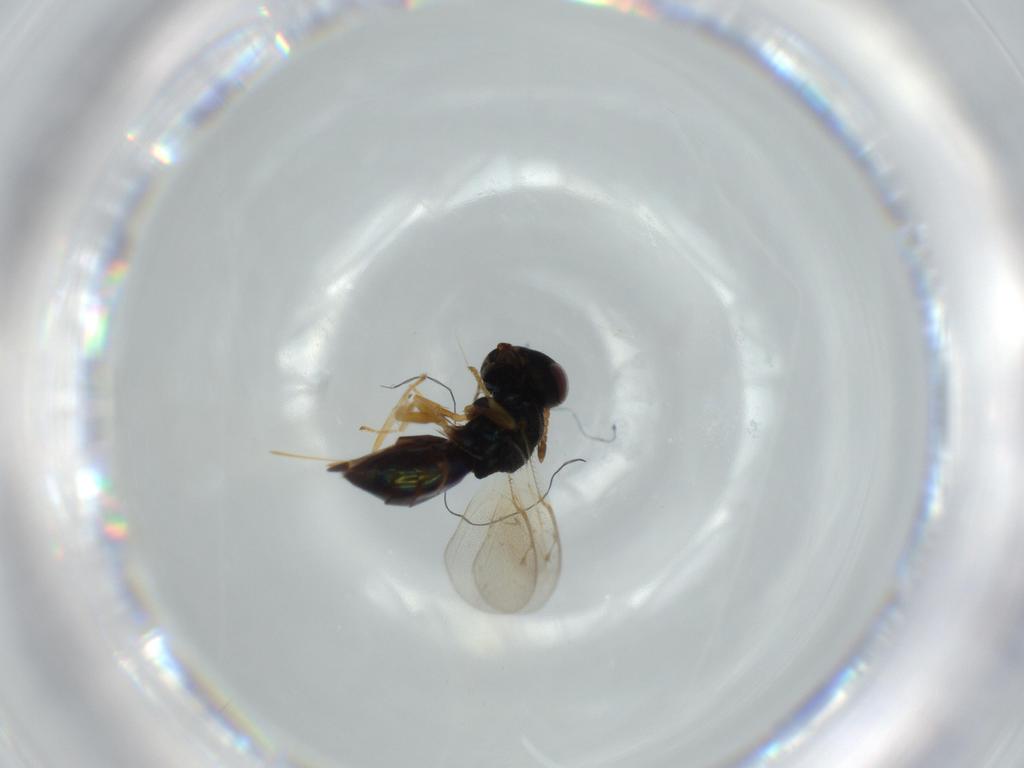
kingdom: Animalia
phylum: Arthropoda
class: Insecta
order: Hymenoptera
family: Pteromalidae
